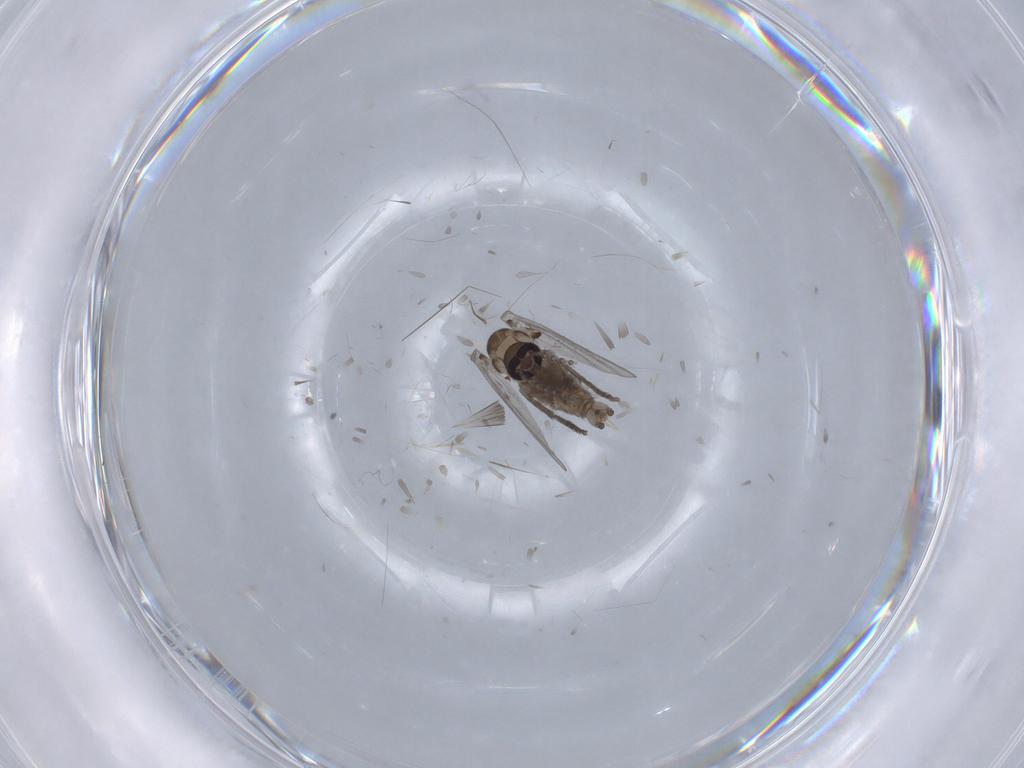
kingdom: Animalia
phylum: Arthropoda
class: Insecta
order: Diptera
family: Psychodidae
